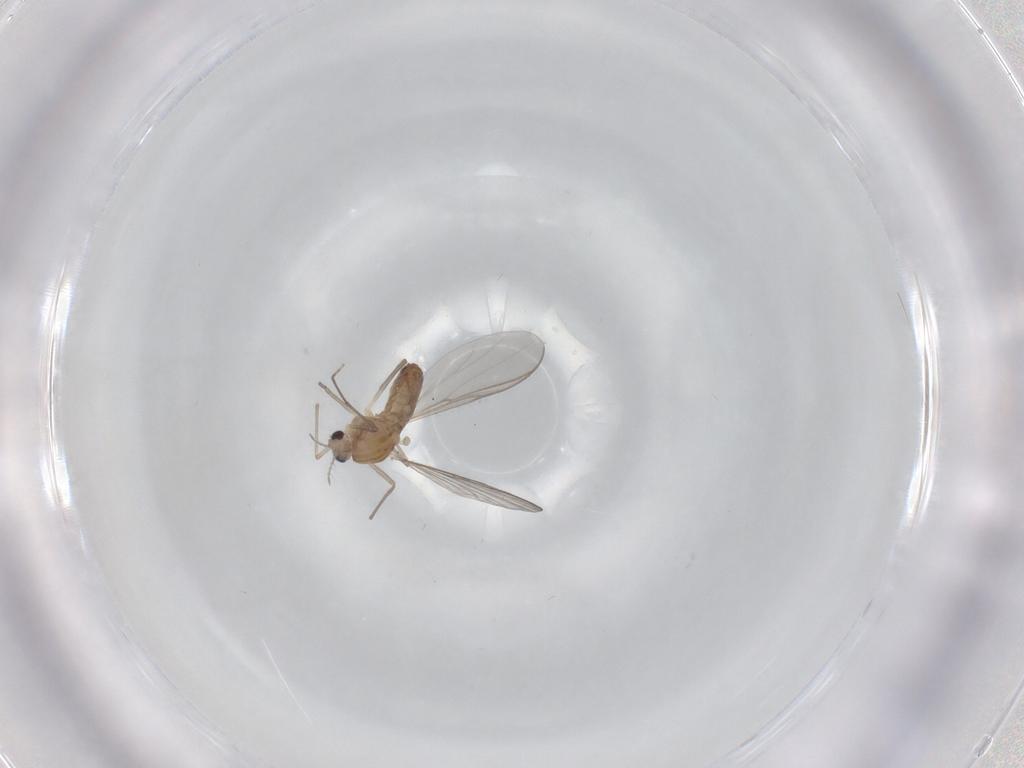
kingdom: Animalia
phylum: Arthropoda
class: Insecta
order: Diptera
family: Chironomidae
